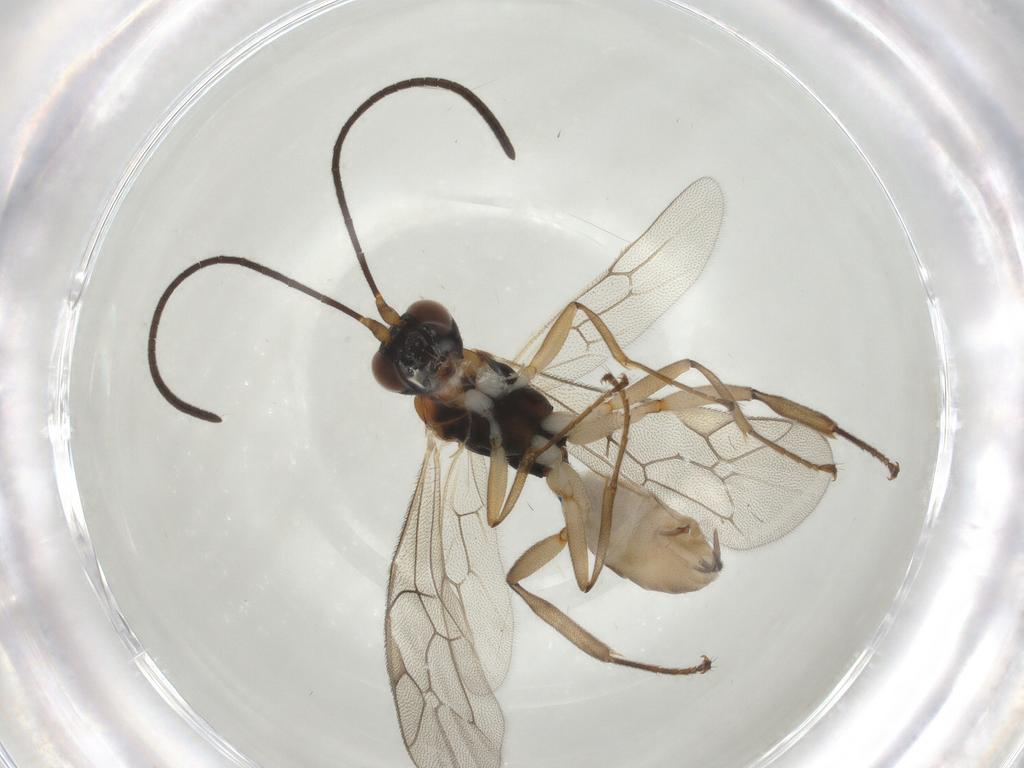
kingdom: Animalia
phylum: Arthropoda
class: Insecta
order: Hymenoptera
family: Mymaridae
